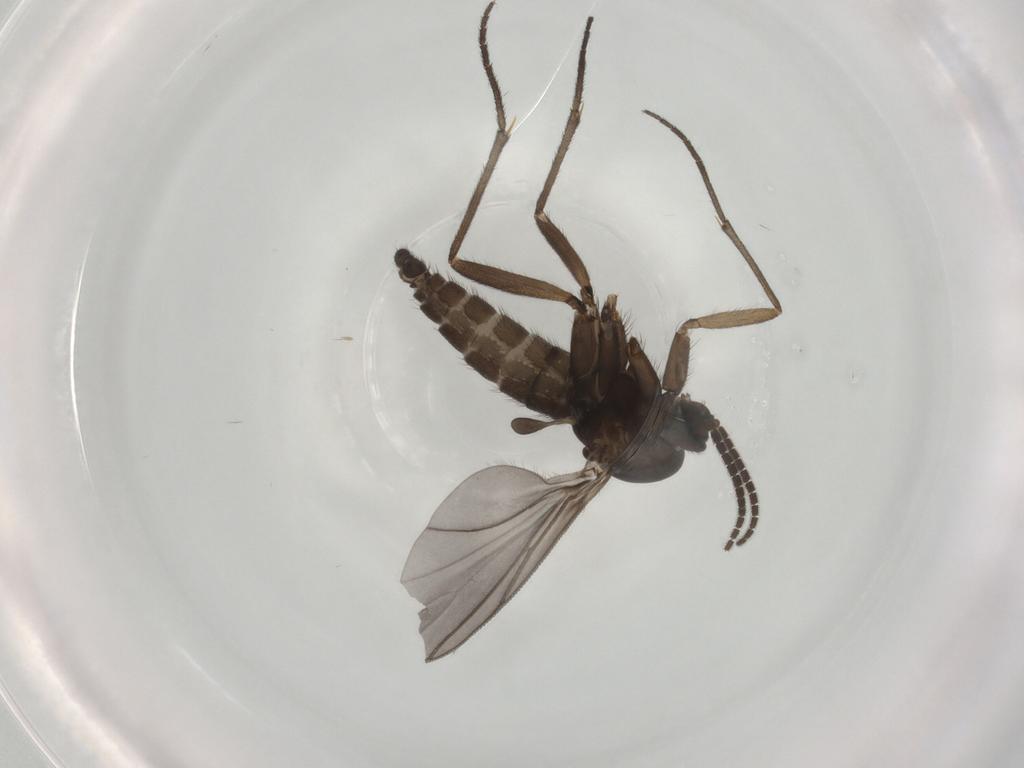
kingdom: Animalia
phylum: Arthropoda
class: Insecta
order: Diptera
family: Sciaridae
